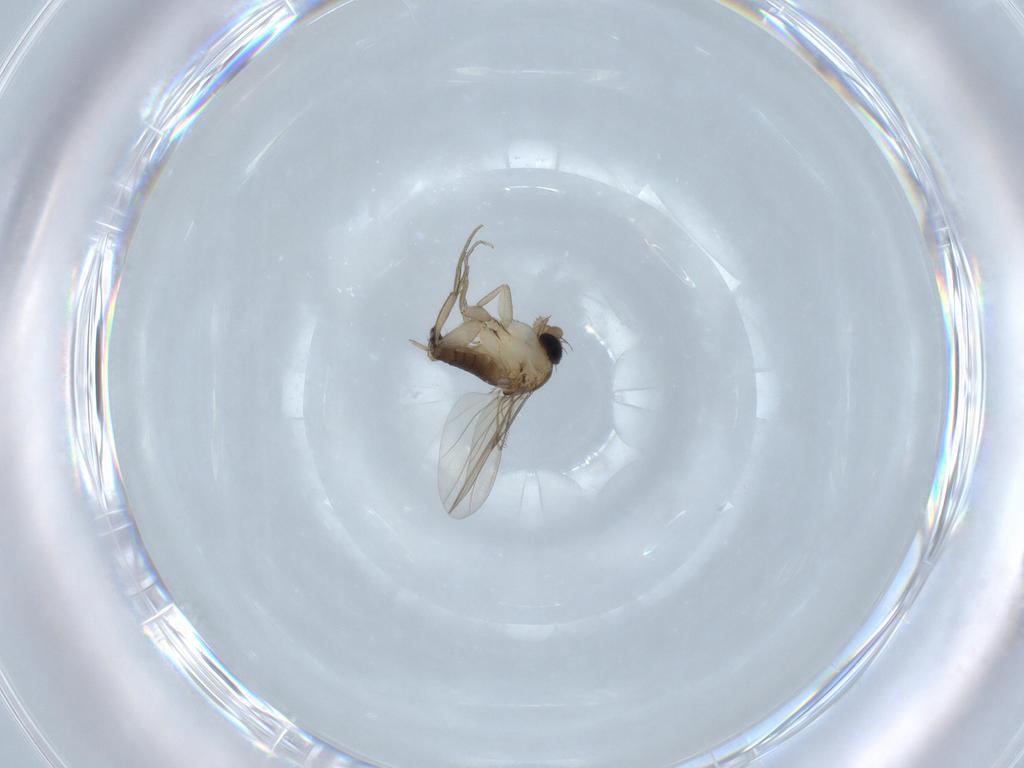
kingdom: Animalia
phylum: Arthropoda
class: Insecta
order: Diptera
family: Phoridae
